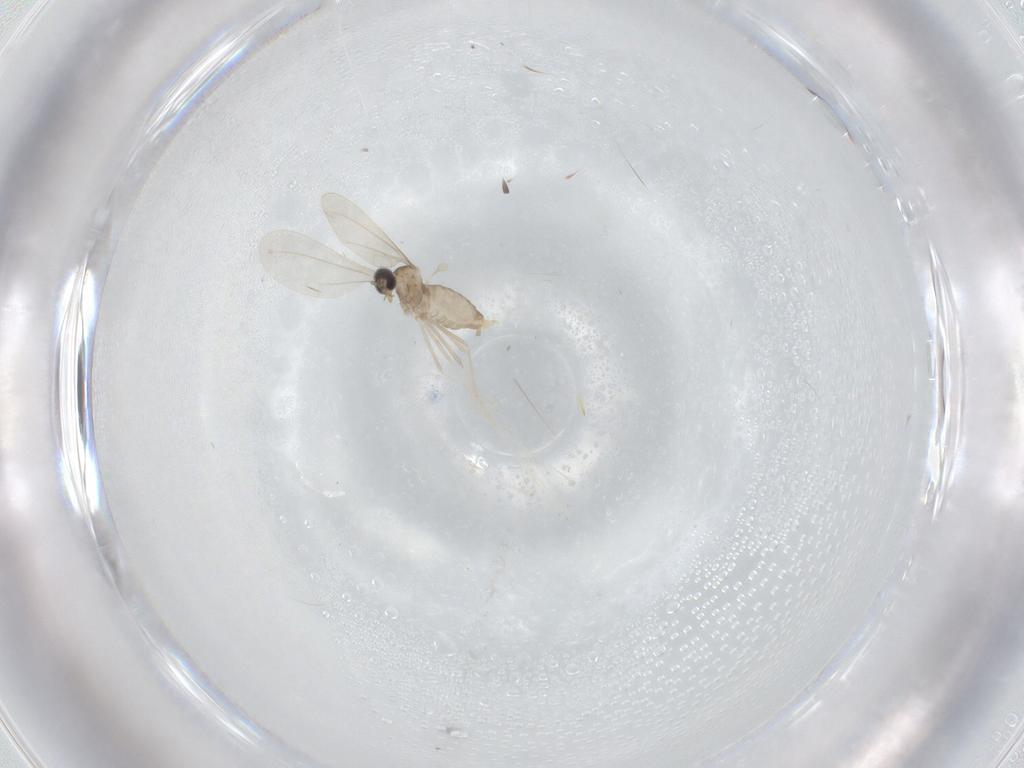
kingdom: Animalia
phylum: Arthropoda
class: Insecta
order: Diptera
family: Cecidomyiidae
